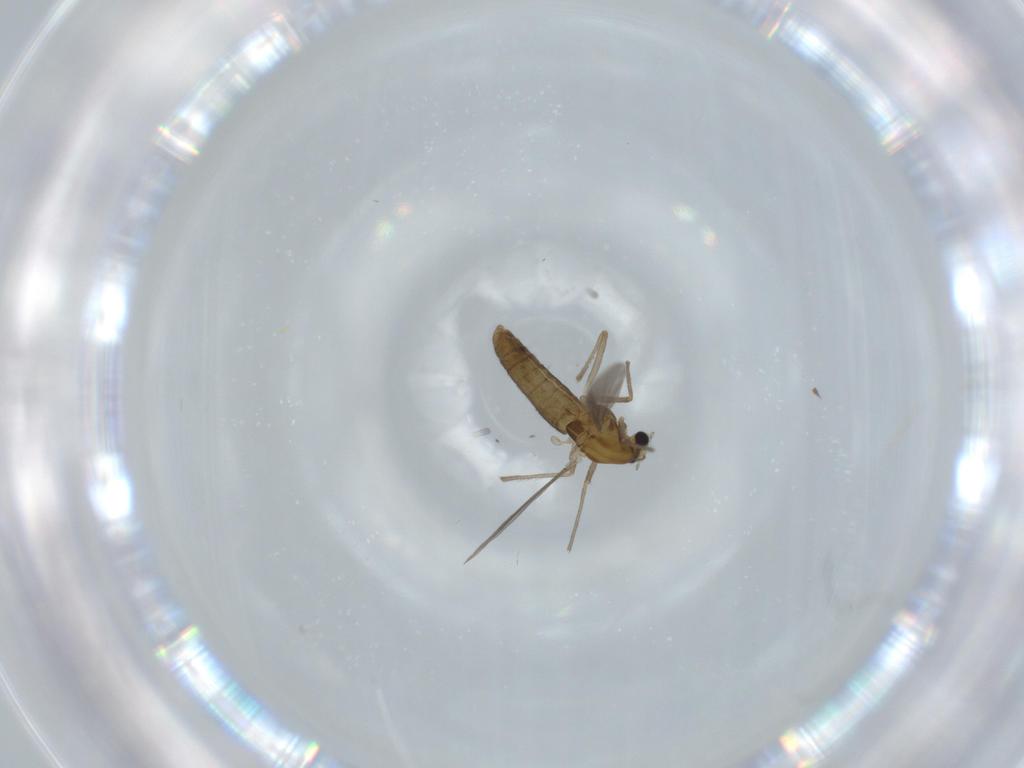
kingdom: Animalia
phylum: Arthropoda
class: Insecta
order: Diptera
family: Chironomidae
